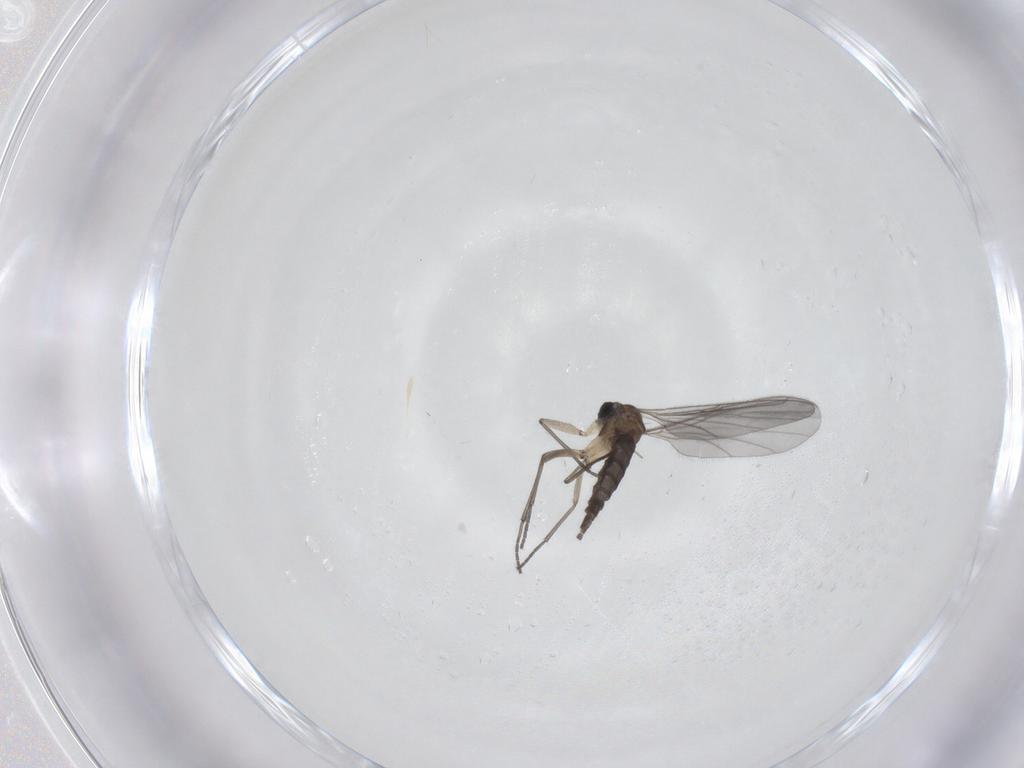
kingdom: Animalia
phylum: Arthropoda
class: Insecta
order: Diptera
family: Sciaridae
